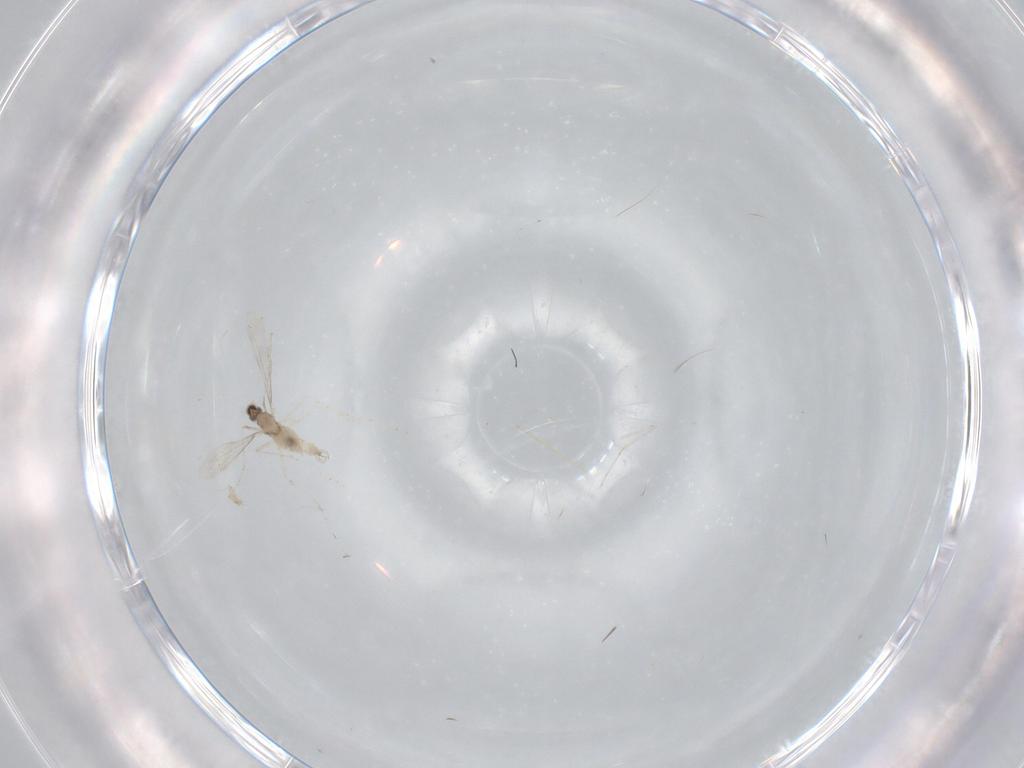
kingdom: Animalia
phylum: Arthropoda
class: Insecta
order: Diptera
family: Cecidomyiidae
